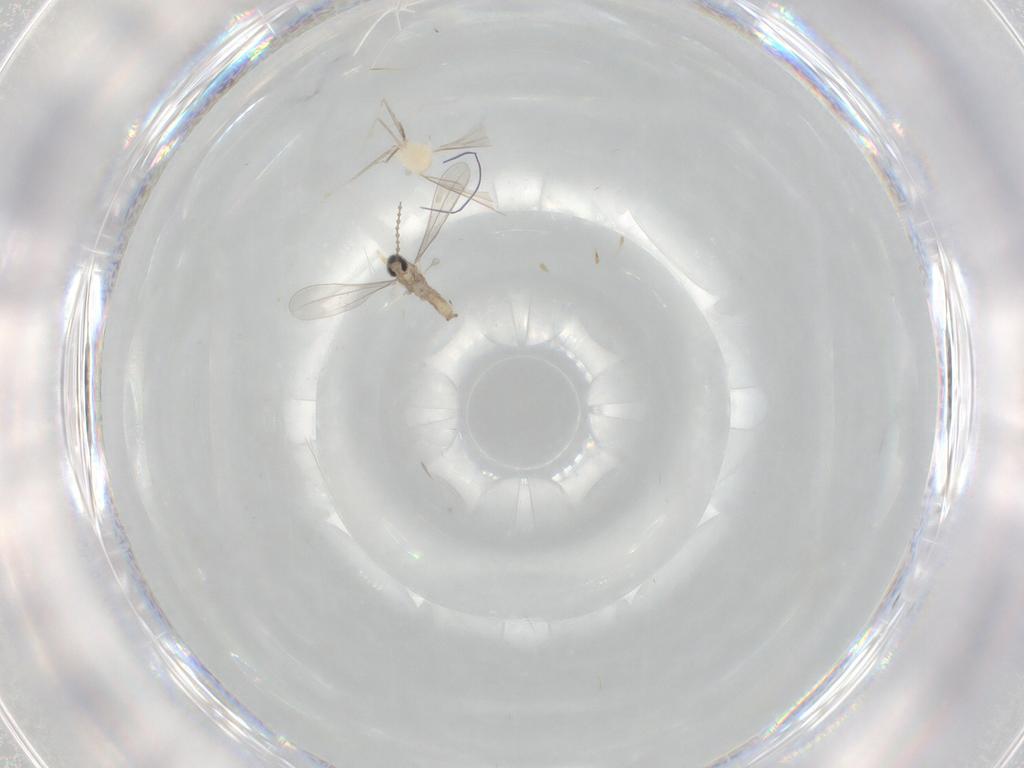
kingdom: Animalia
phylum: Arthropoda
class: Insecta
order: Diptera
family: Cecidomyiidae
